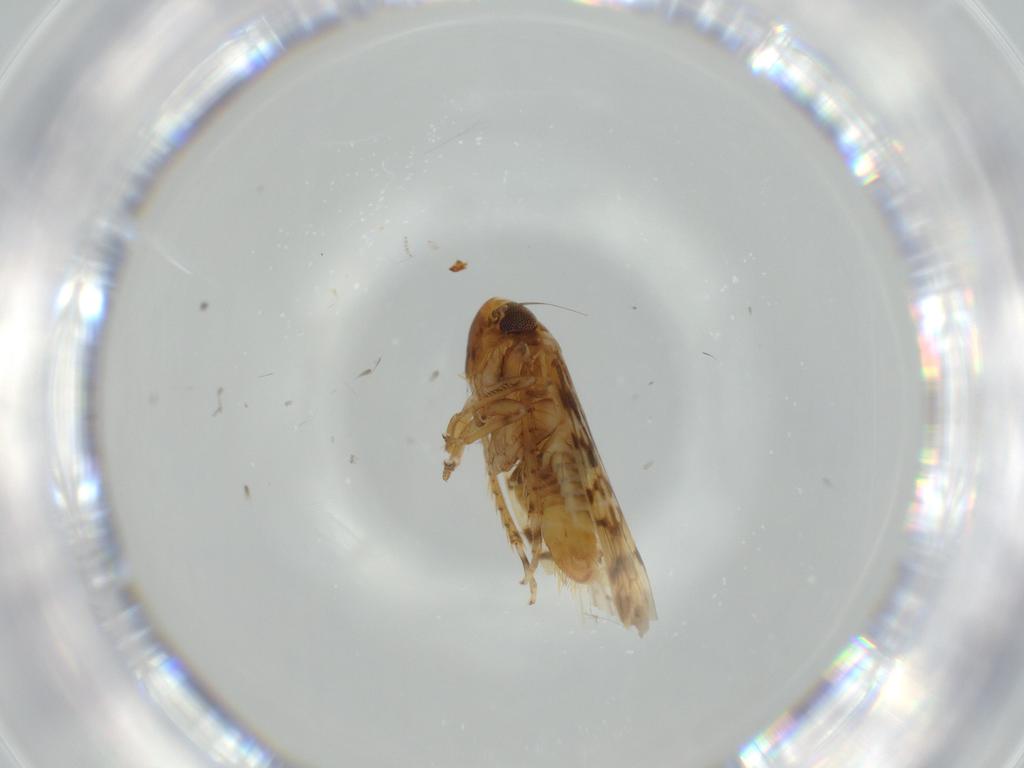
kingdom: Animalia
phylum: Arthropoda
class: Insecta
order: Hemiptera
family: Cicadellidae
